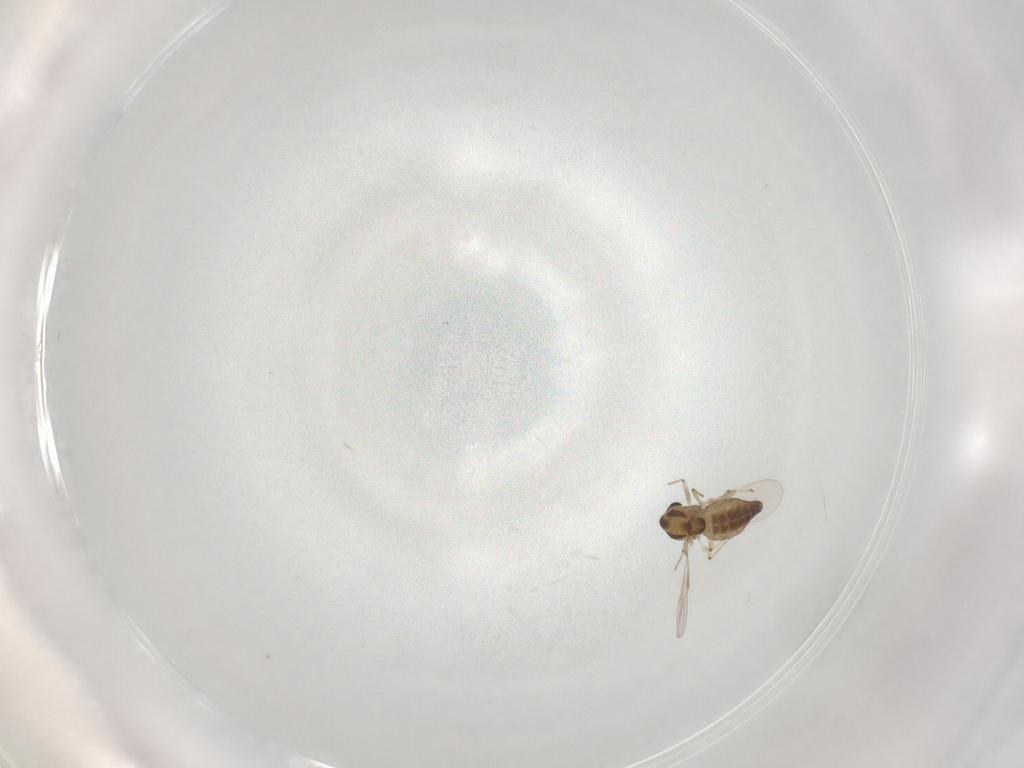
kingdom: Animalia
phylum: Arthropoda
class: Insecta
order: Diptera
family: Chironomidae
